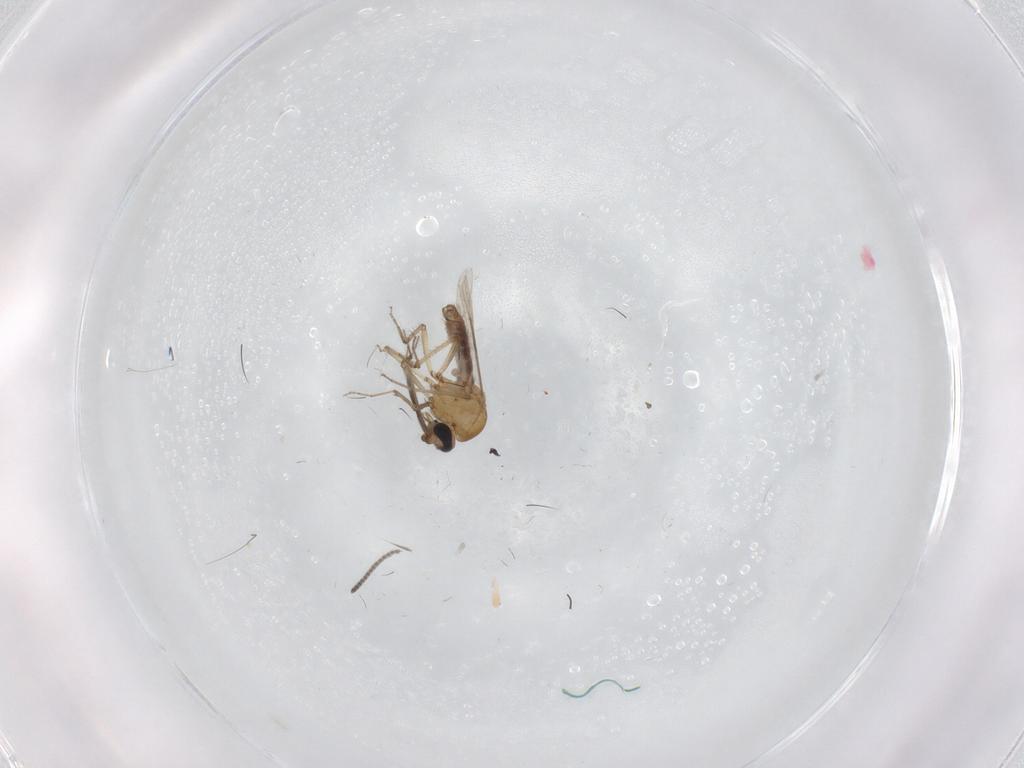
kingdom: Animalia
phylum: Arthropoda
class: Insecta
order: Diptera
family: Sciaridae
